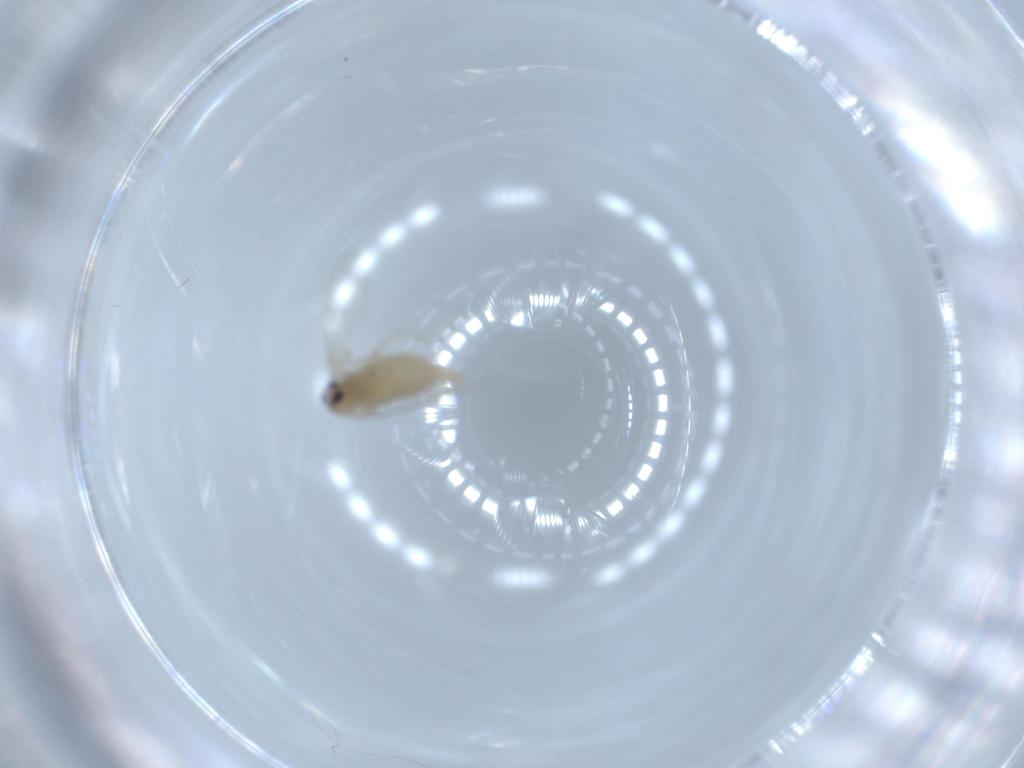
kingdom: Animalia
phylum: Arthropoda
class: Insecta
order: Diptera
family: Cecidomyiidae
